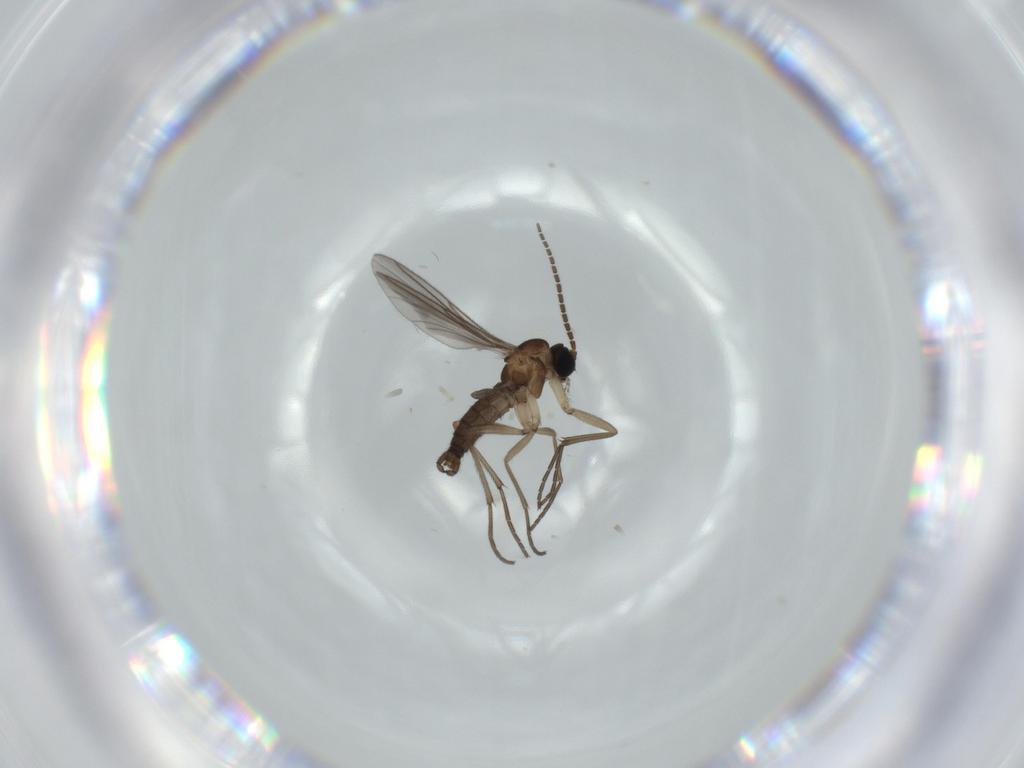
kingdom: Animalia
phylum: Arthropoda
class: Insecta
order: Diptera
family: Sciaridae
